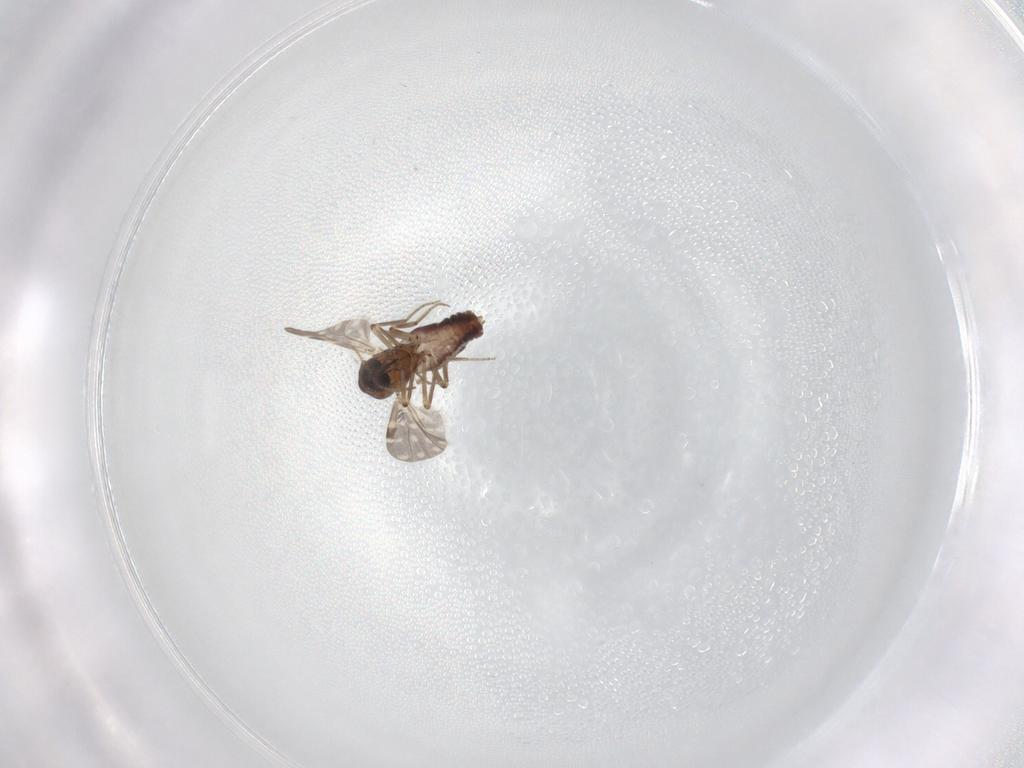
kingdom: Animalia
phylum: Arthropoda
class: Insecta
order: Diptera
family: Ceratopogonidae
